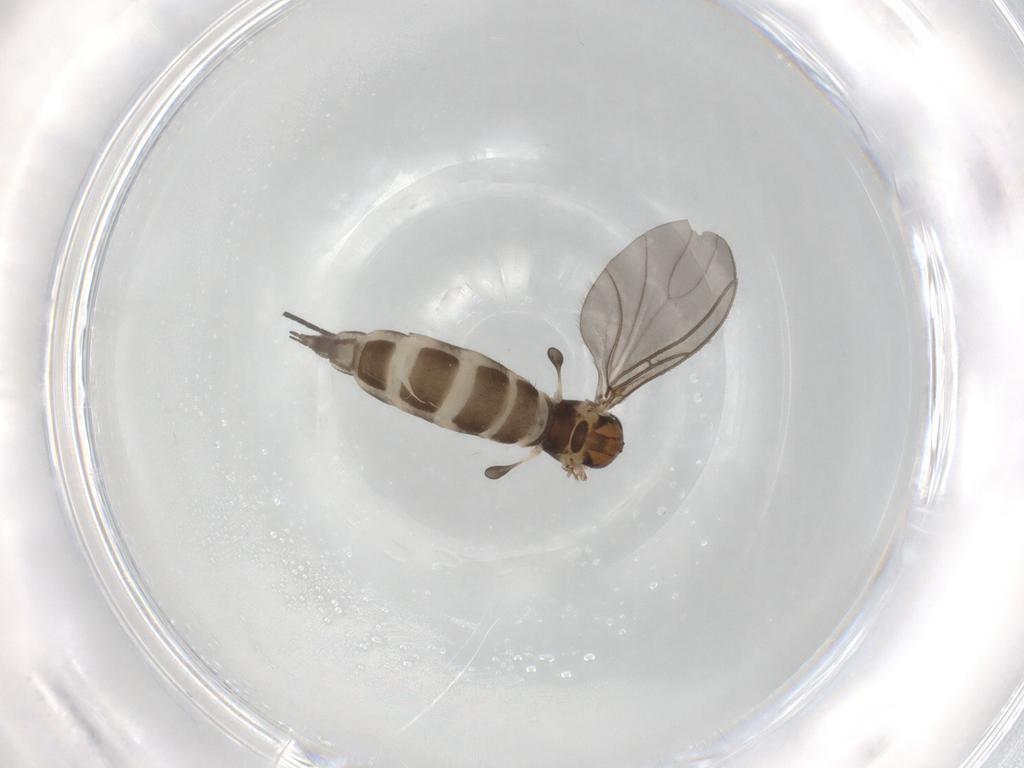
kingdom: Animalia
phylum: Arthropoda
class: Insecta
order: Diptera
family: Sciaridae
